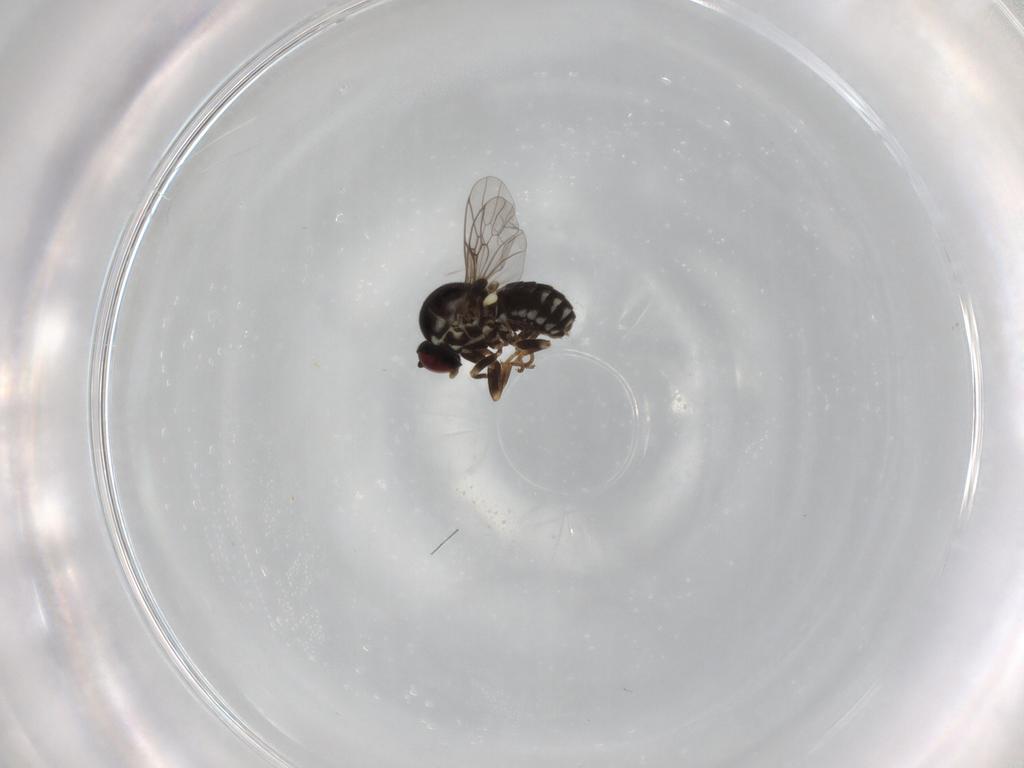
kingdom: Animalia
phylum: Arthropoda
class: Insecta
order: Diptera
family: Bombyliidae
